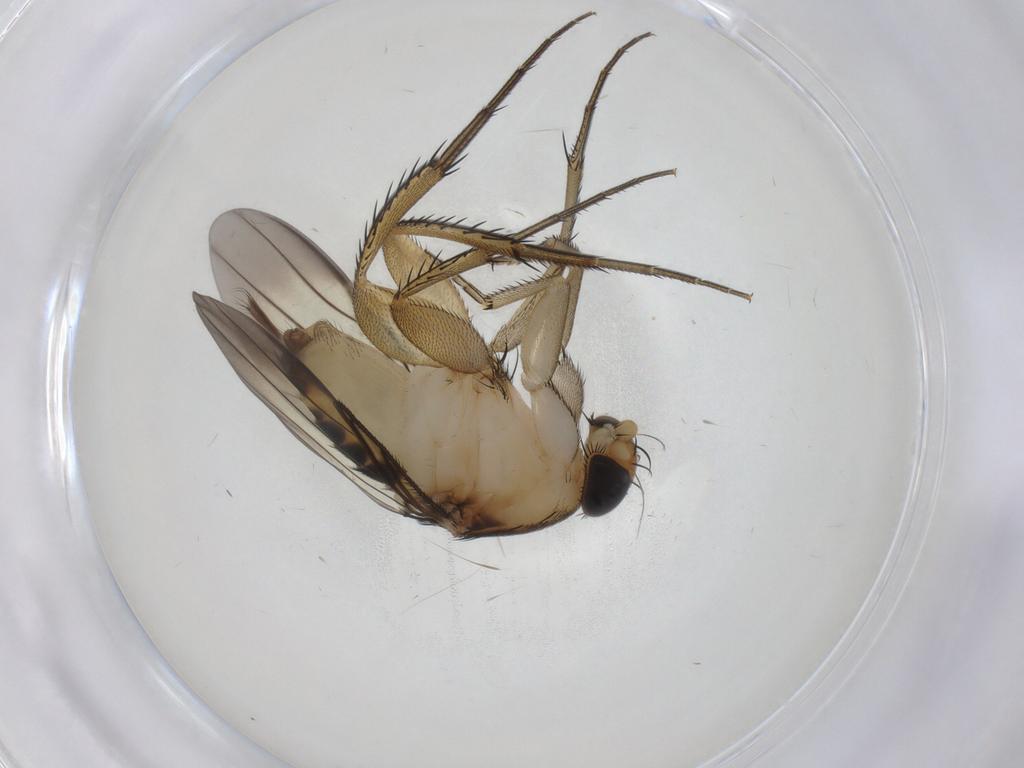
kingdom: Animalia
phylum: Arthropoda
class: Insecta
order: Diptera
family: Phoridae
